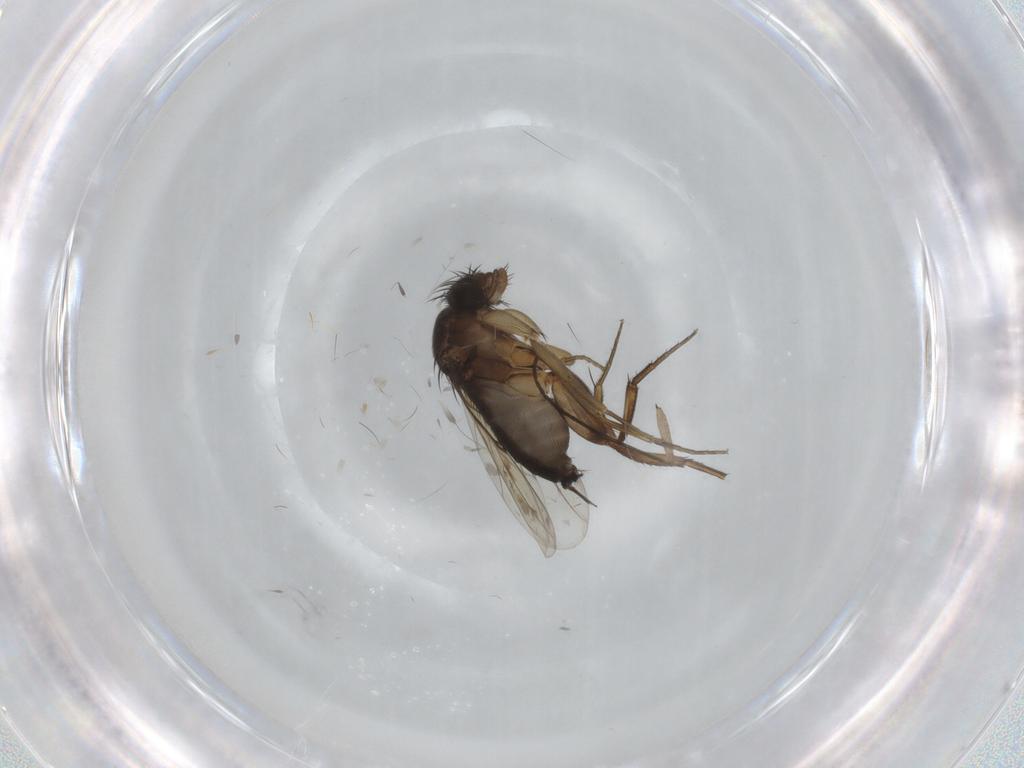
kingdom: Animalia
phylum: Arthropoda
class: Insecta
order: Diptera
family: Phoridae
